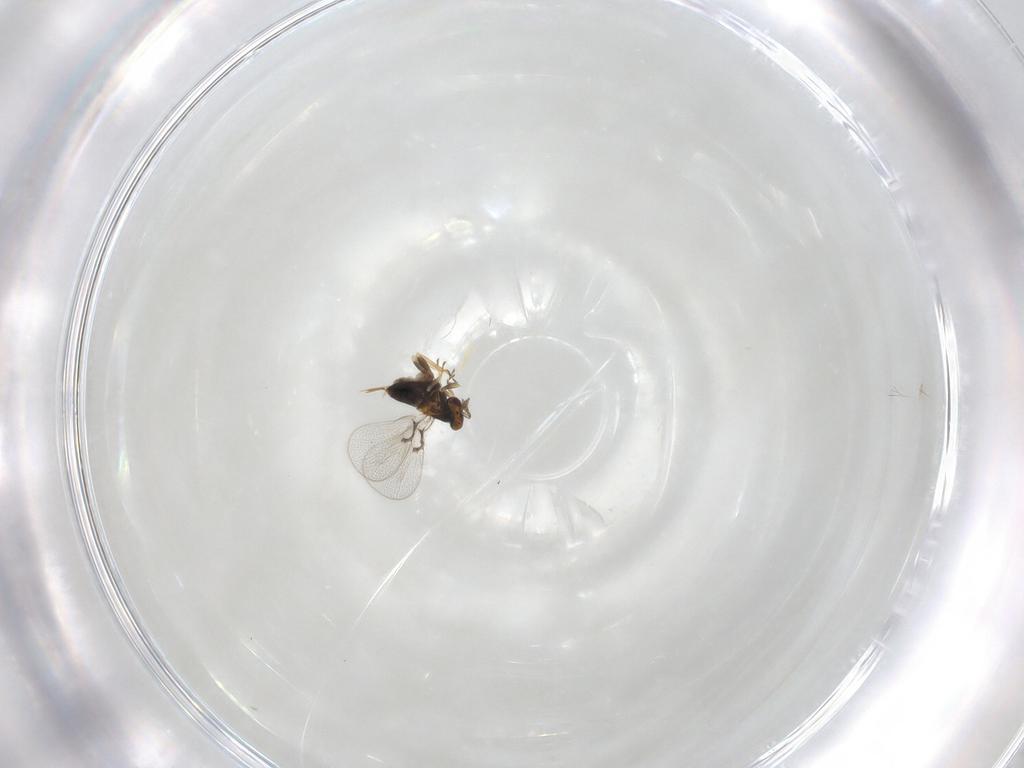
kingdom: Animalia
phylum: Arthropoda
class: Insecta
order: Hymenoptera
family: Trichogrammatidae
